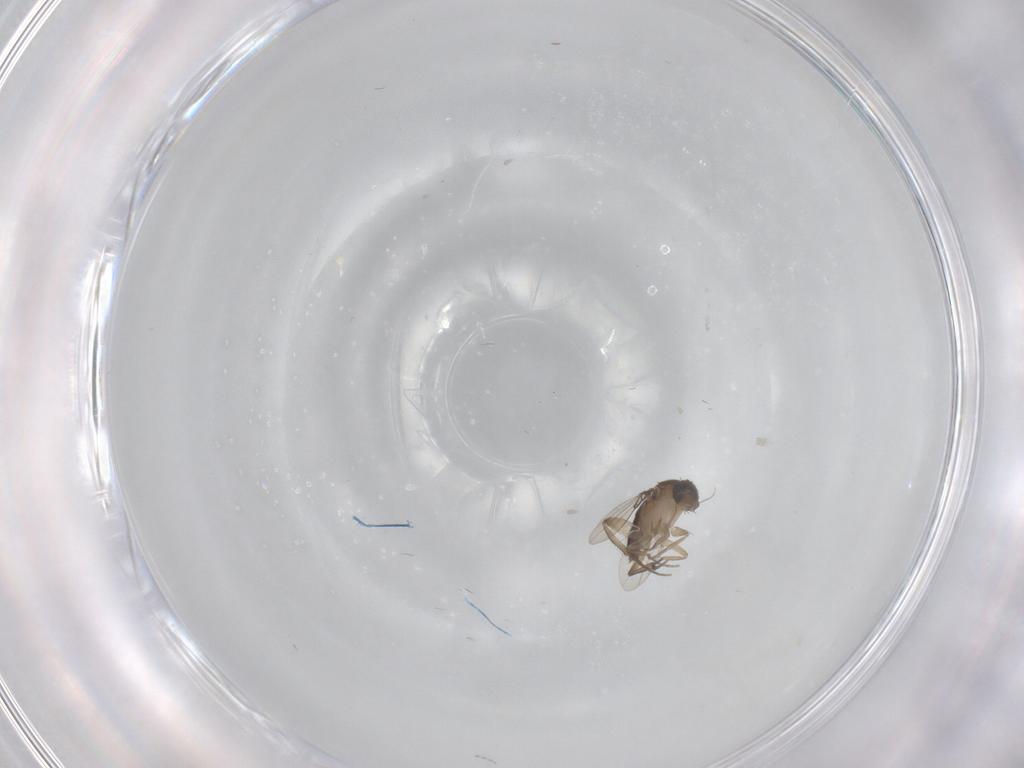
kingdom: Animalia
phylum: Arthropoda
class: Insecta
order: Diptera
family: Phoridae
